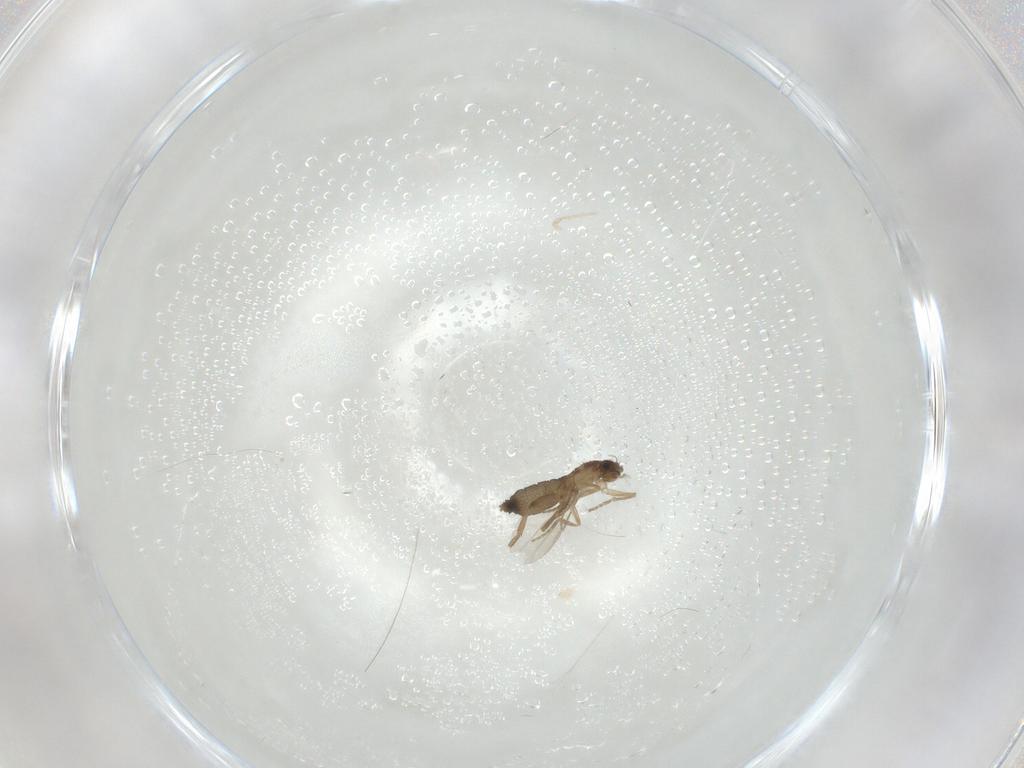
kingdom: Animalia
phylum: Arthropoda
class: Insecta
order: Diptera
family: Phoridae
